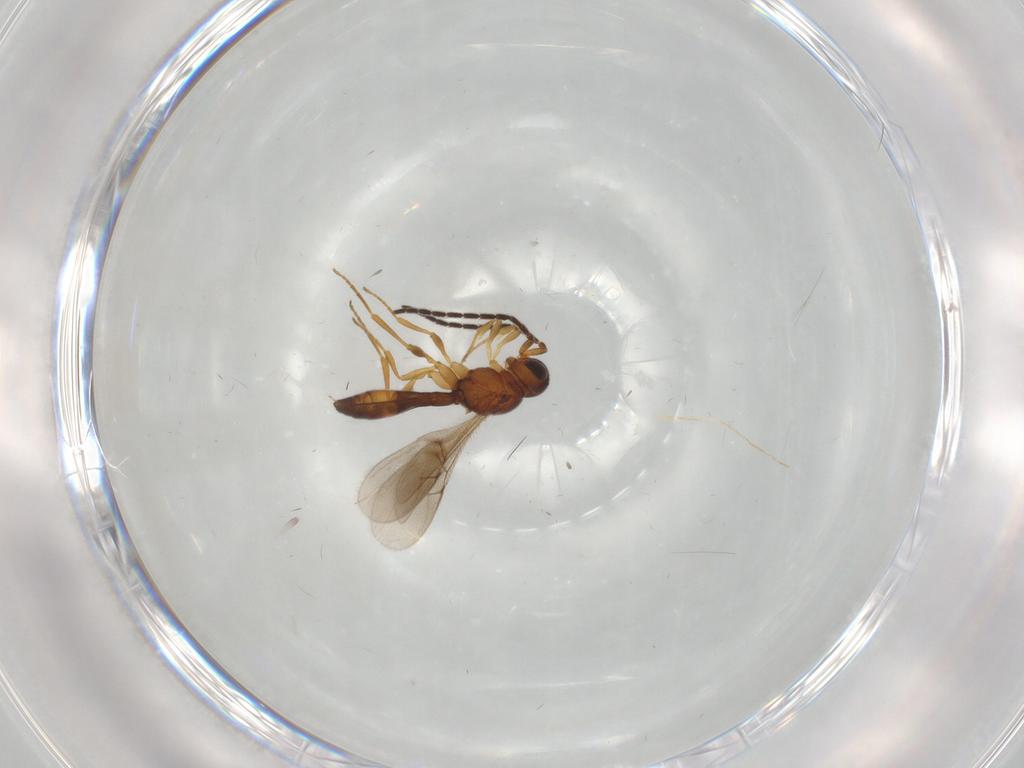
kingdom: Animalia
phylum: Arthropoda
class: Insecta
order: Hymenoptera
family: Scelionidae
